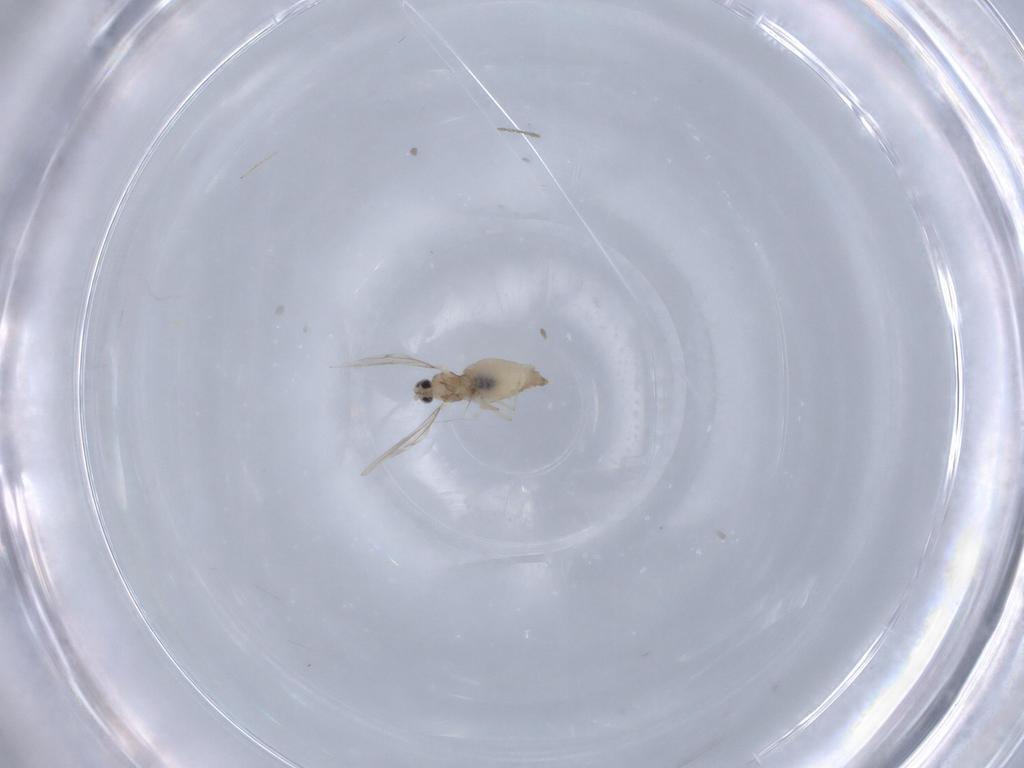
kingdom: Animalia
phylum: Arthropoda
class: Insecta
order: Diptera
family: Cecidomyiidae
